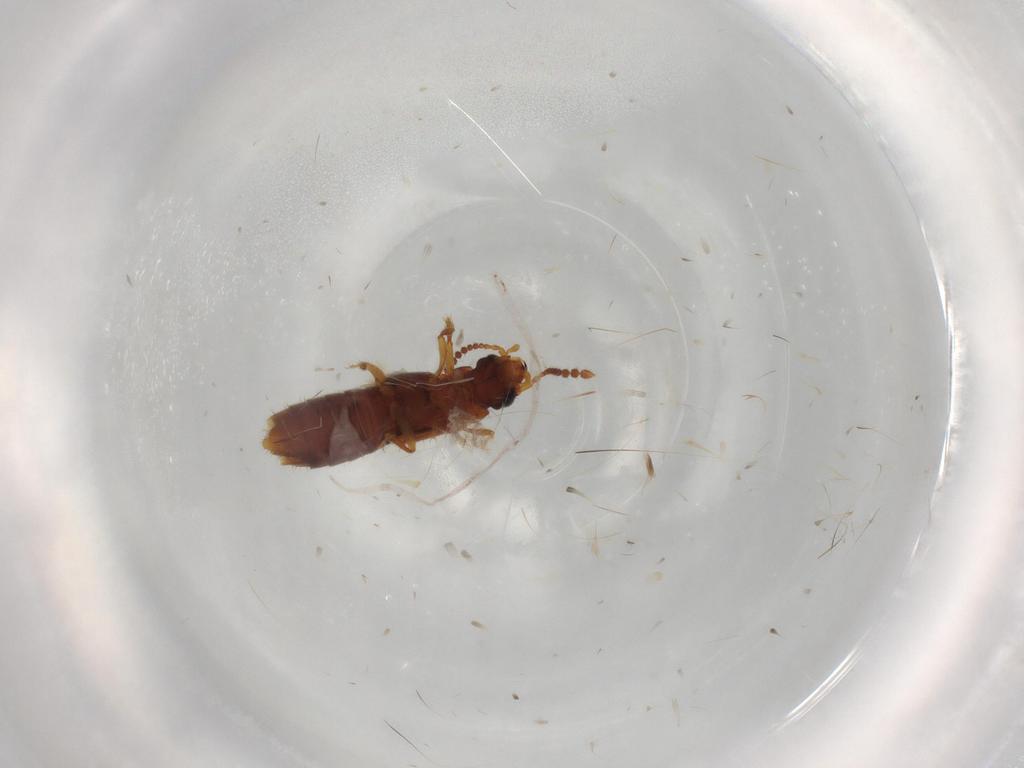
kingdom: Animalia
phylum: Arthropoda
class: Insecta
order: Coleoptera
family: Staphylinidae
